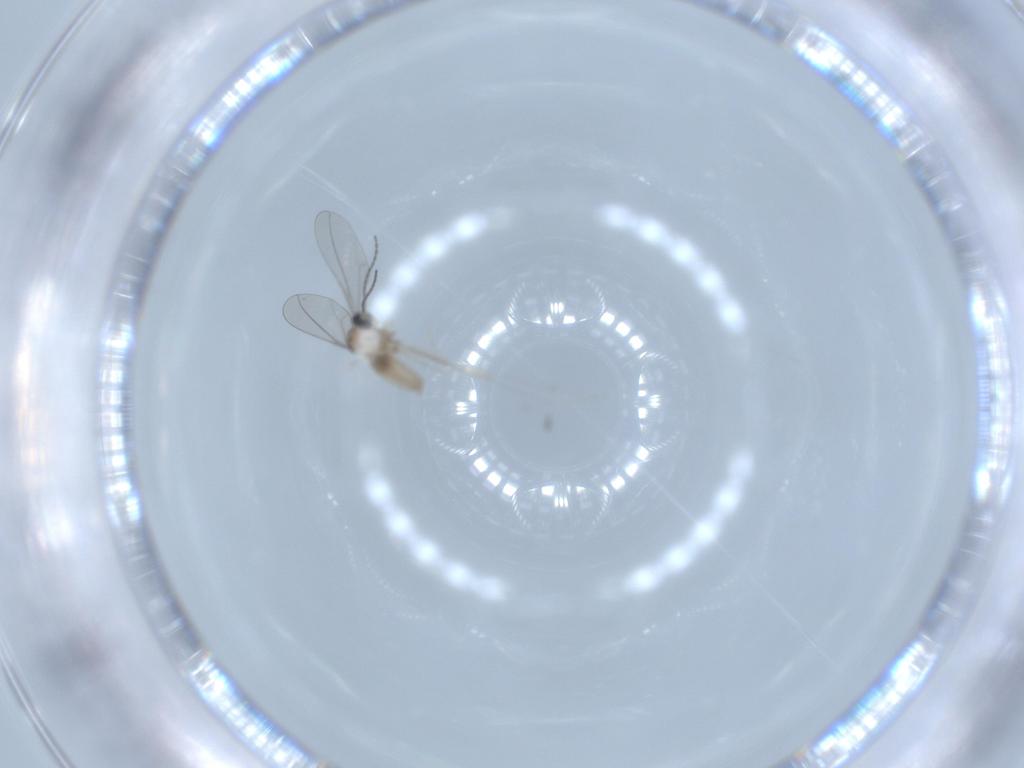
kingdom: Animalia
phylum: Arthropoda
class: Insecta
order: Diptera
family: Cecidomyiidae
